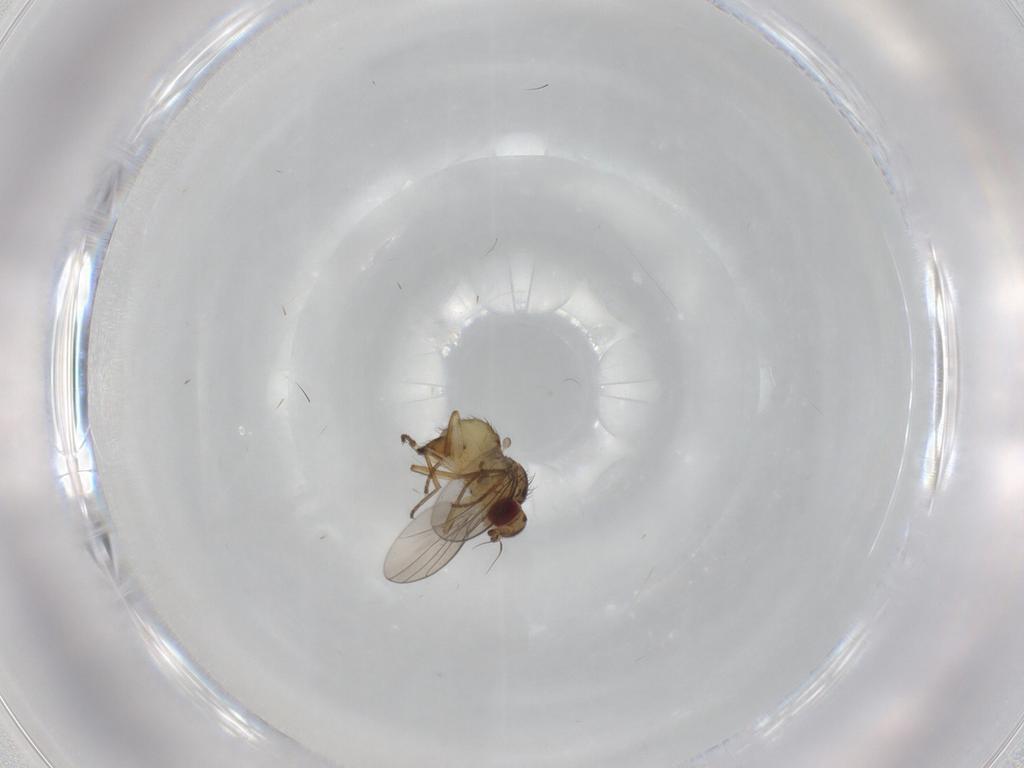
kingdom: Animalia
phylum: Arthropoda
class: Insecta
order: Diptera
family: Agromyzidae
